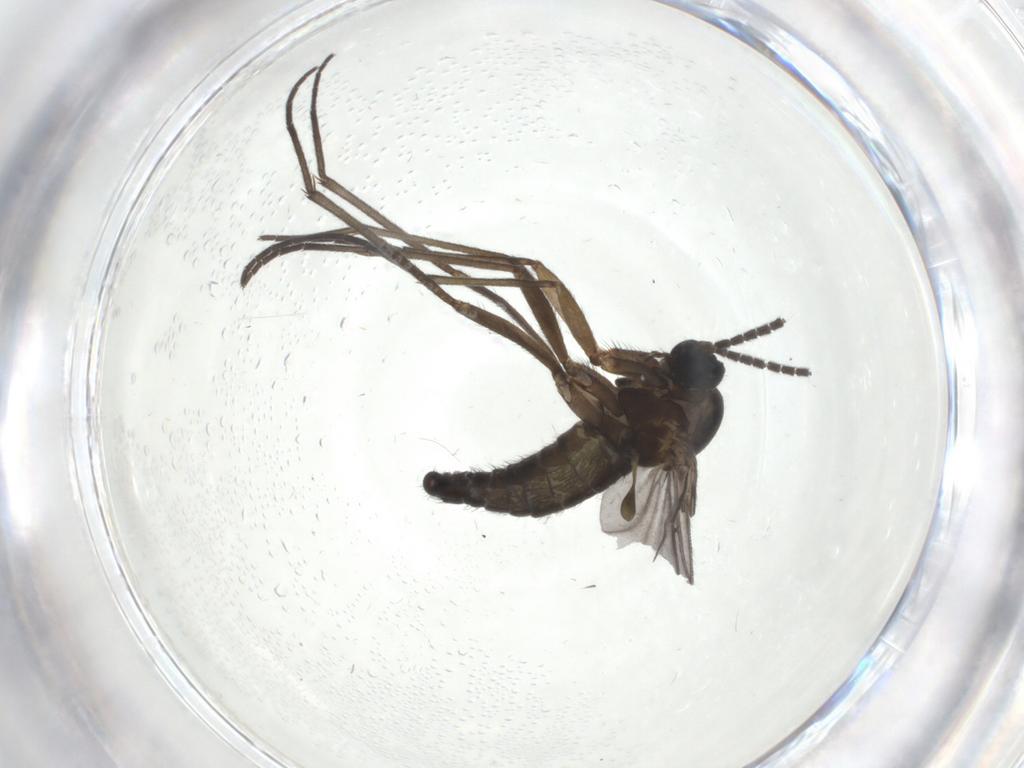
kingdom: Animalia
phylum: Arthropoda
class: Insecta
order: Diptera
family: Sciaridae
